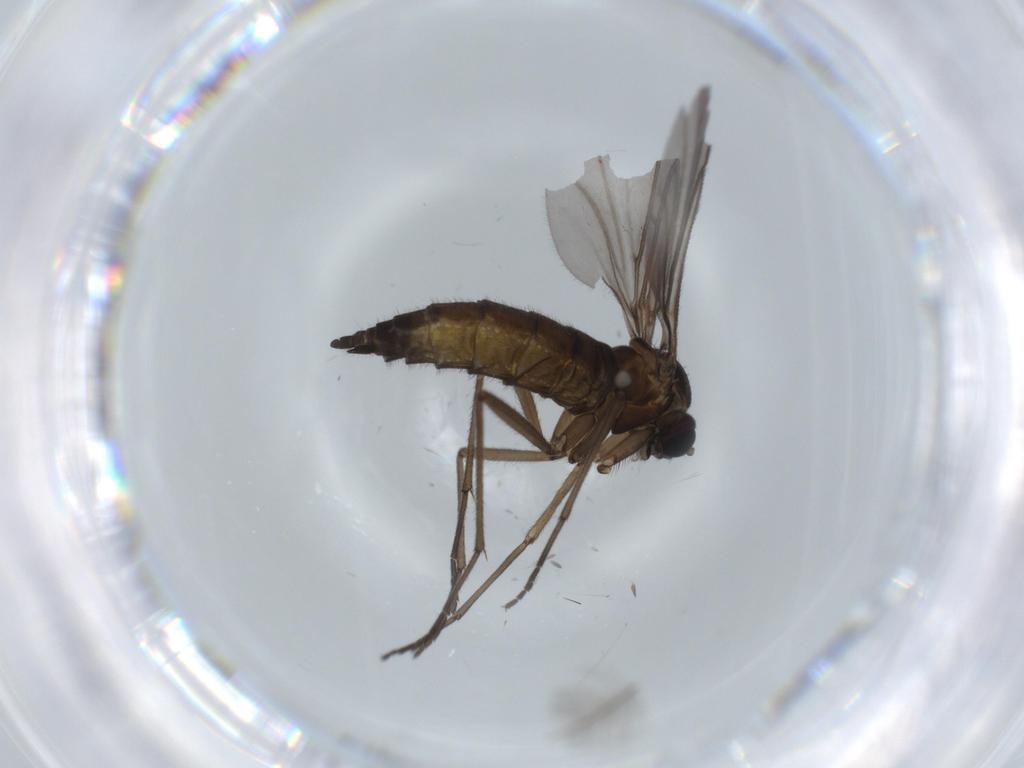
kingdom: Animalia
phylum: Arthropoda
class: Insecta
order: Diptera
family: Sciaridae
